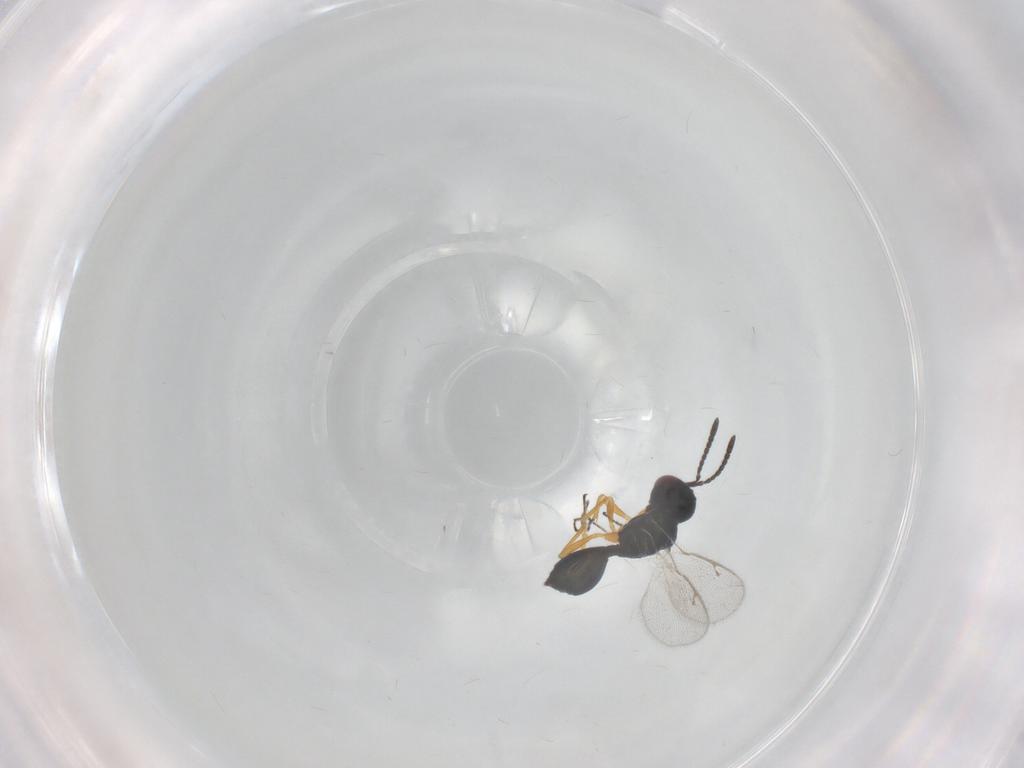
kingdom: Animalia
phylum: Arthropoda
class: Insecta
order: Hymenoptera
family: Pteromalidae
